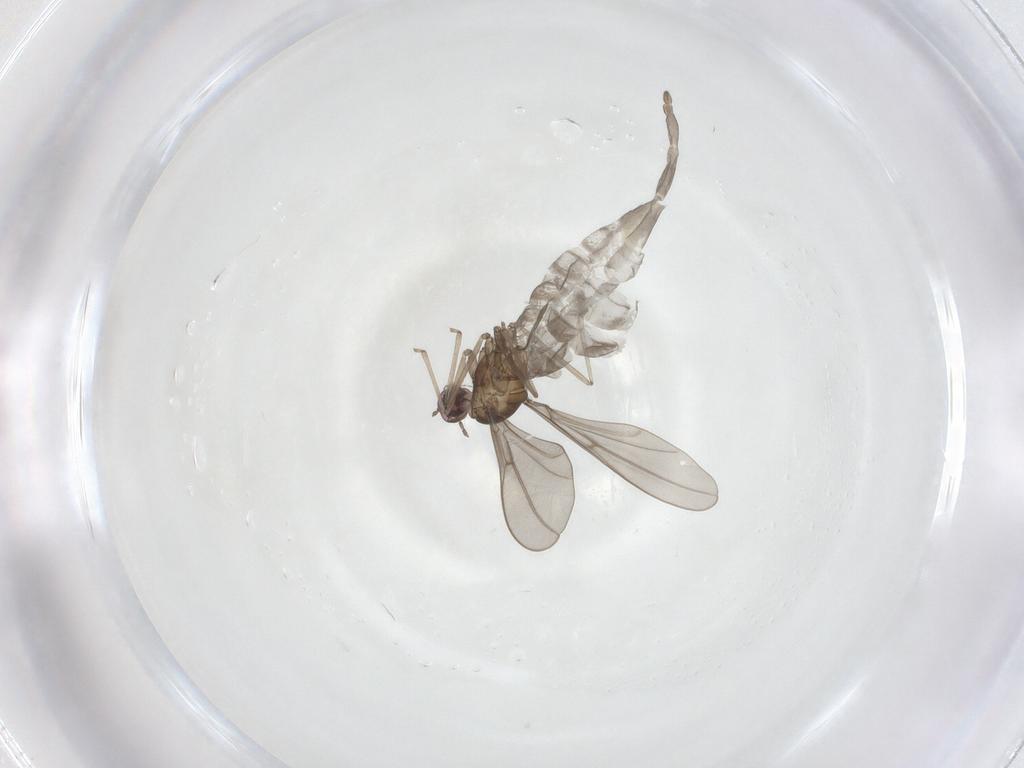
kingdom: Animalia
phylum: Arthropoda
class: Insecta
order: Diptera
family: Cecidomyiidae
